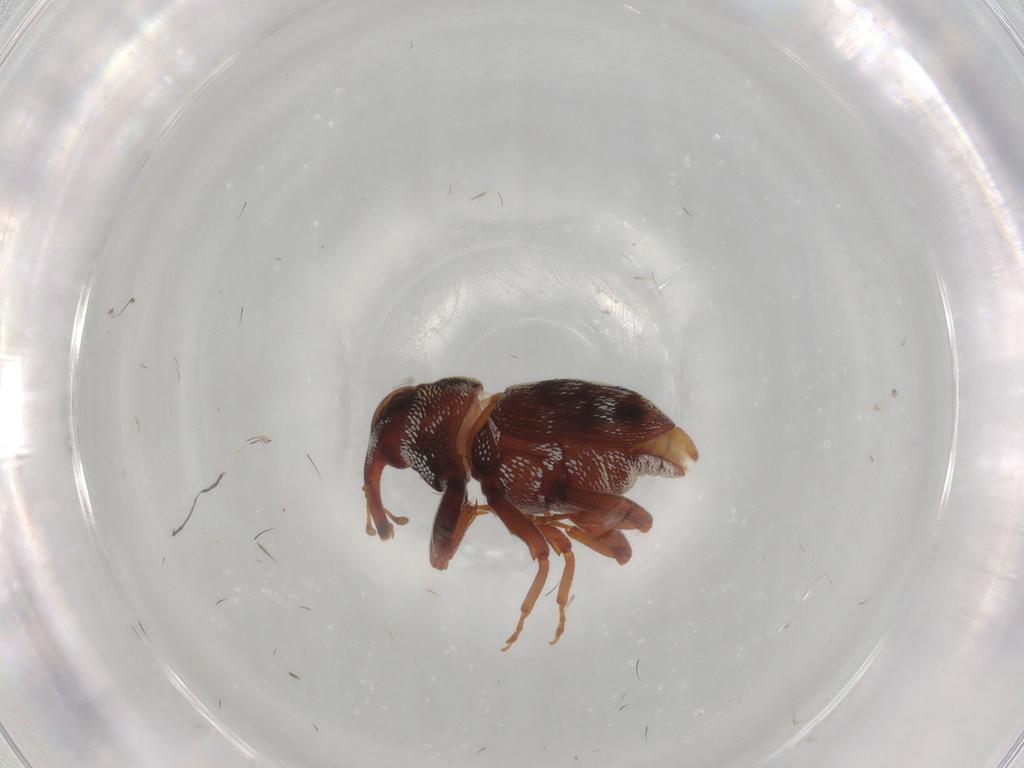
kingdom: Animalia
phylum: Arthropoda
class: Insecta
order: Coleoptera
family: Curculionidae
